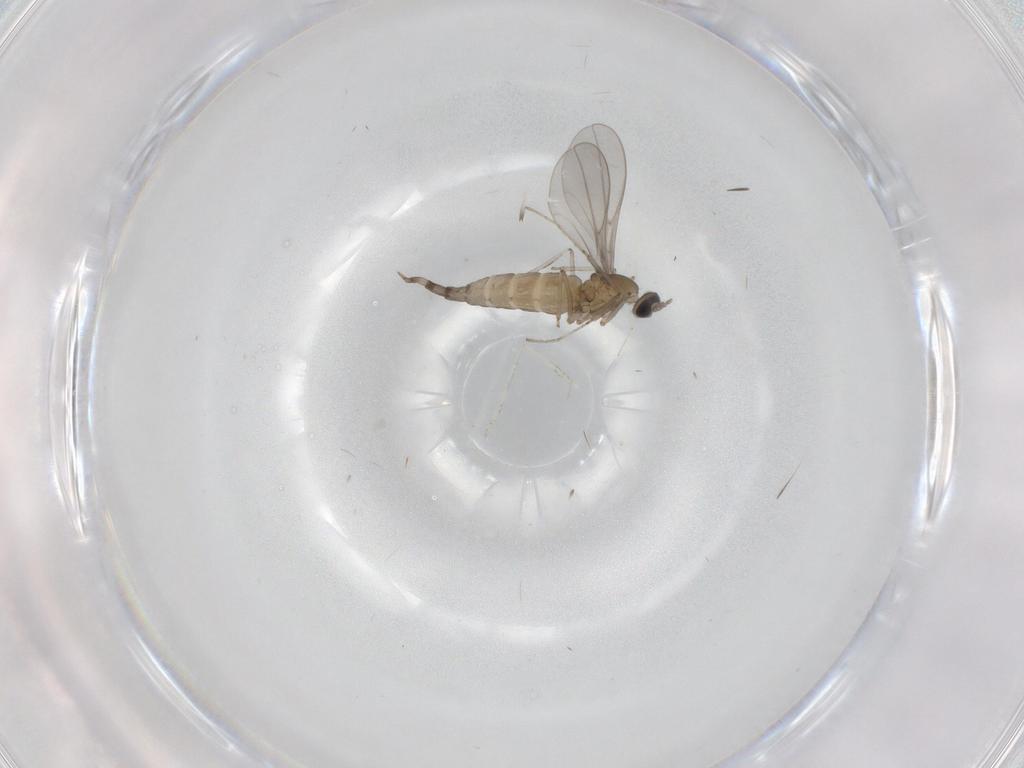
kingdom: Animalia
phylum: Arthropoda
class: Insecta
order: Diptera
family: Cecidomyiidae
